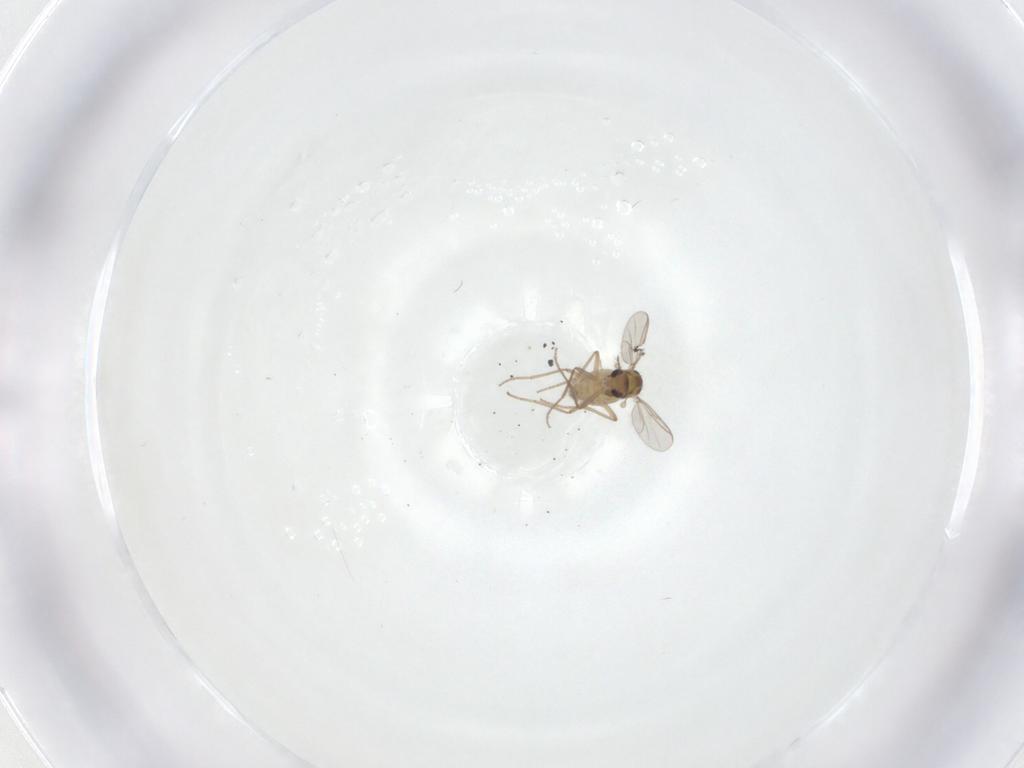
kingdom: Animalia
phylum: Arthropoda
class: Insecta
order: Diptera
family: Chironomidae
